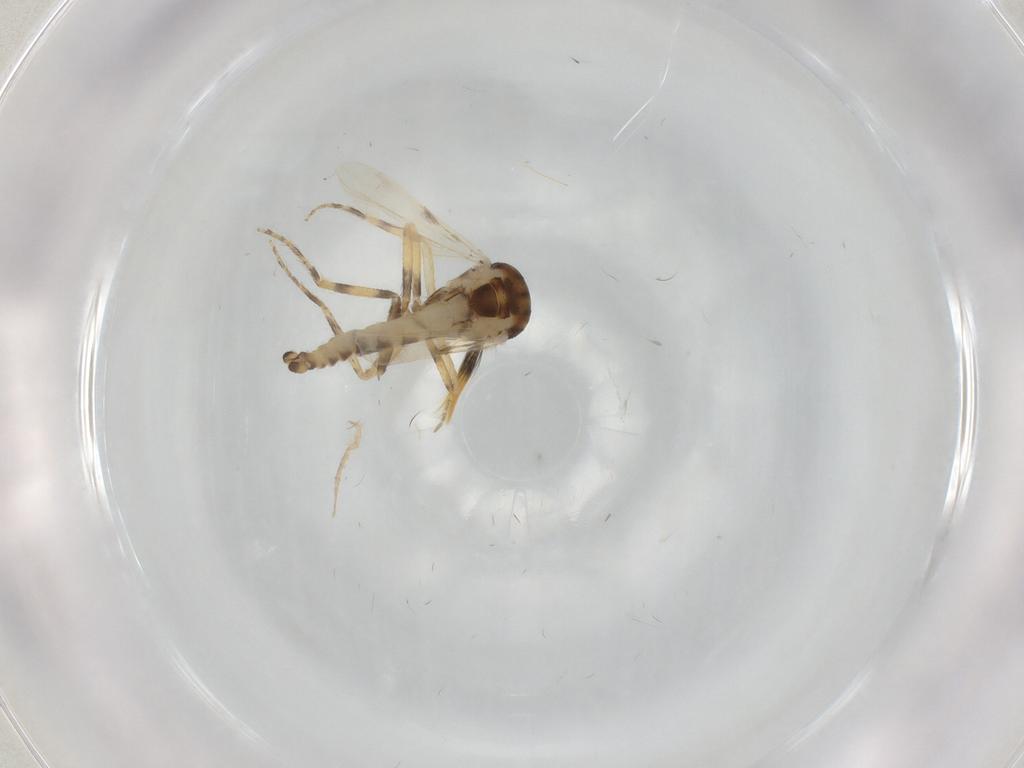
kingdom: Animalia
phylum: Arthropoda
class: Insecta
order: Diptera
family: Ceratopogonidae
